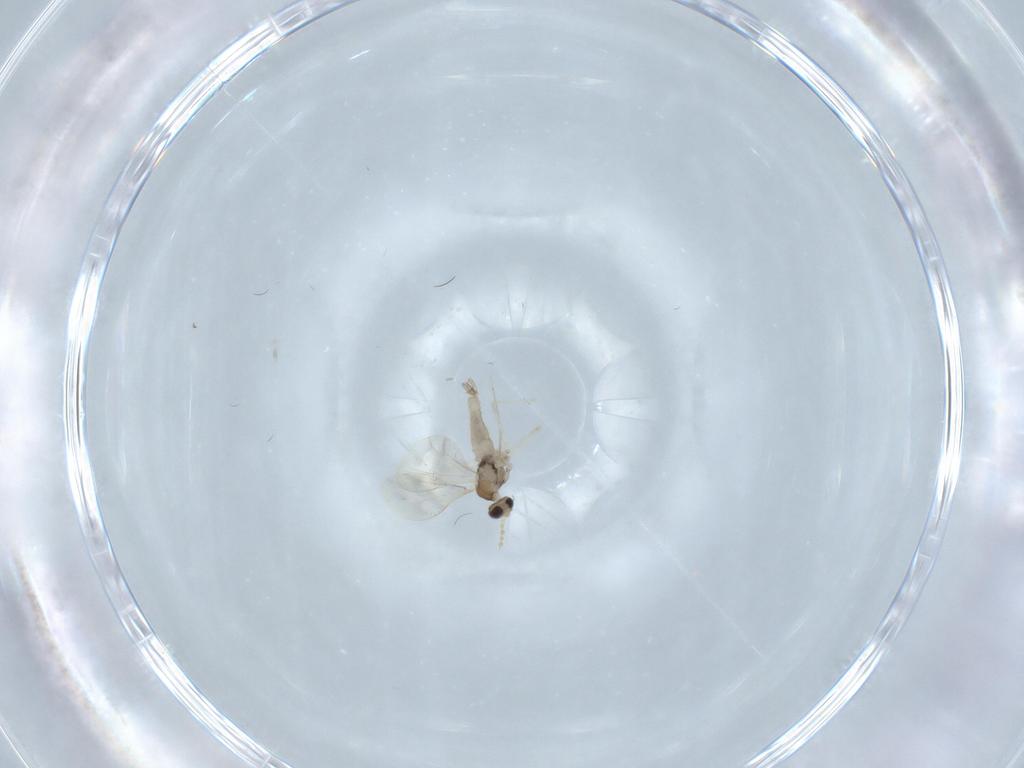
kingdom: Animalia
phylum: Arthropoda
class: Insecta
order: Diptera
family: Cecidomyiidae
